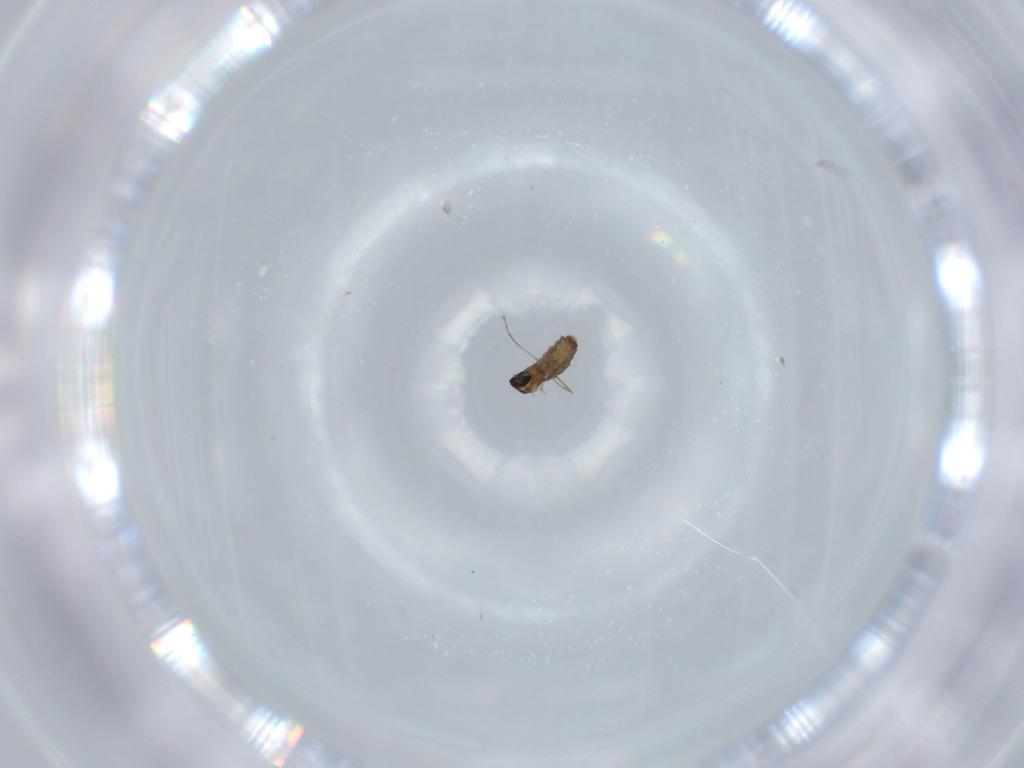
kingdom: Animalia
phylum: Arthropoda
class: Insecta
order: Diptera
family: Cecidomyiidae
